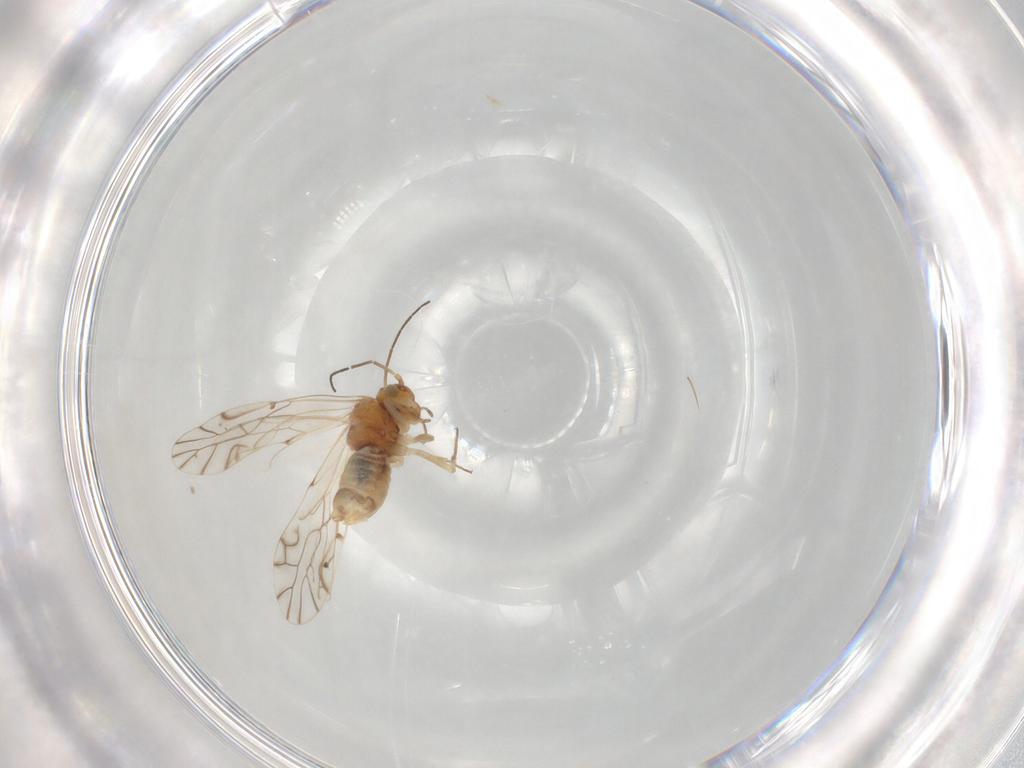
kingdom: Animalia
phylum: Arthropoda
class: Insecta
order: Psocodea
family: Lachesillidae
